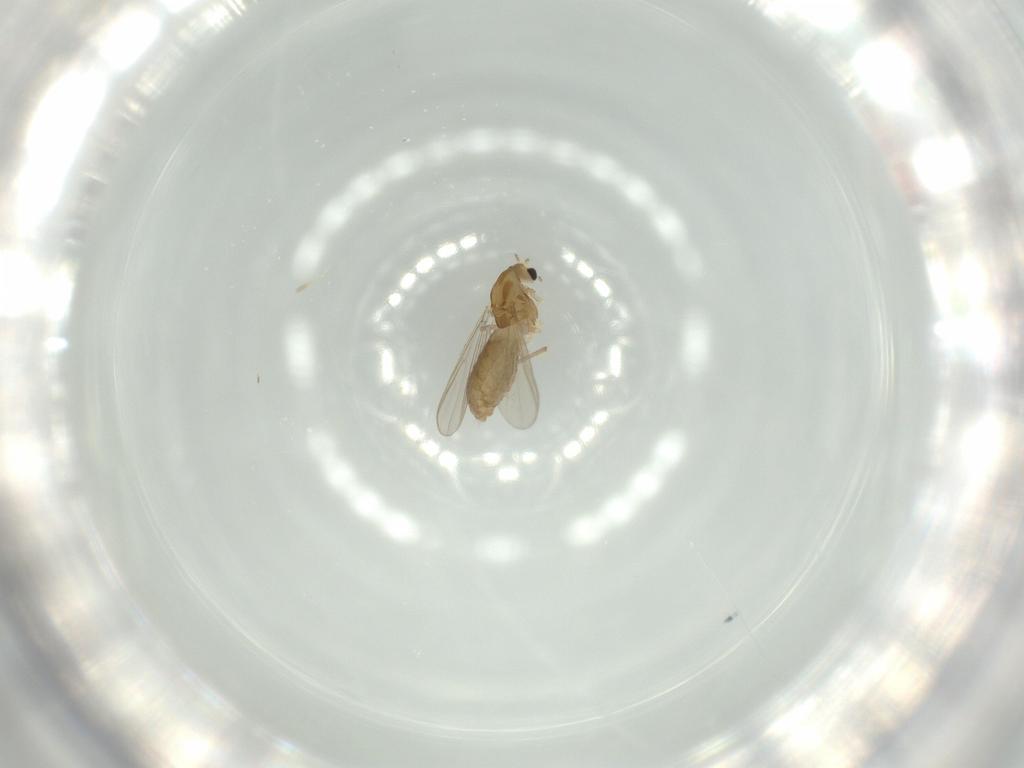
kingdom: Animalia
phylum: Arthropoda
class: Insecta
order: Diptera
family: Chironomidae
